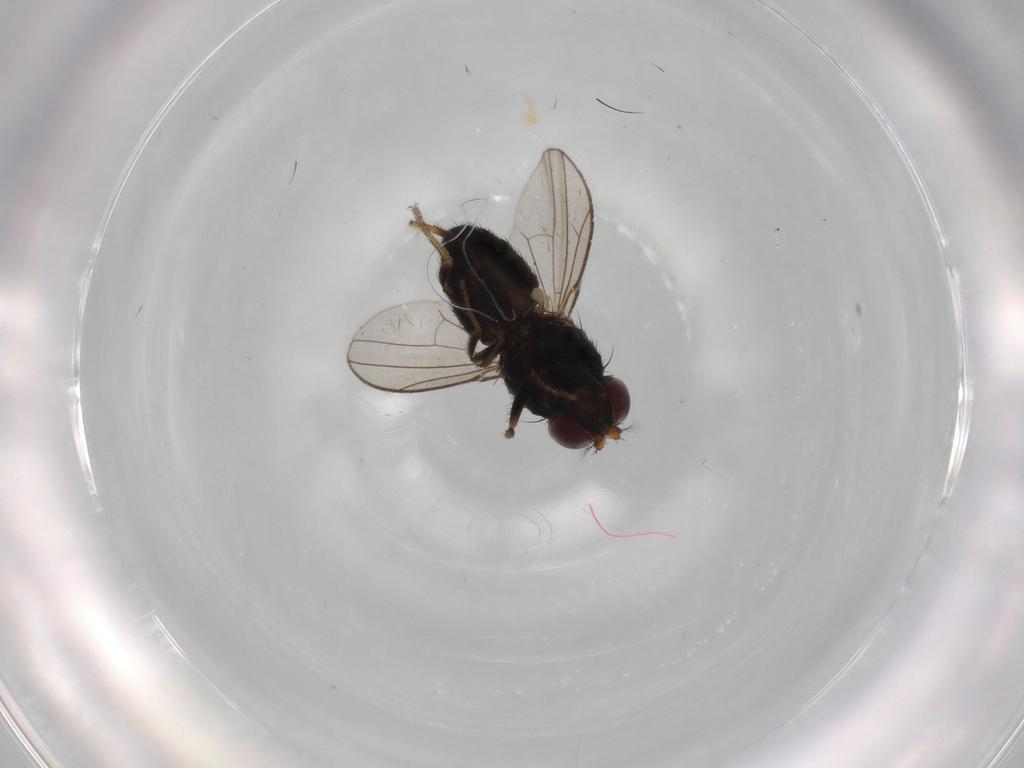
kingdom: Animalia
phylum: Arthropoda
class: Insecta
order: Diptera
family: Ephydridae
